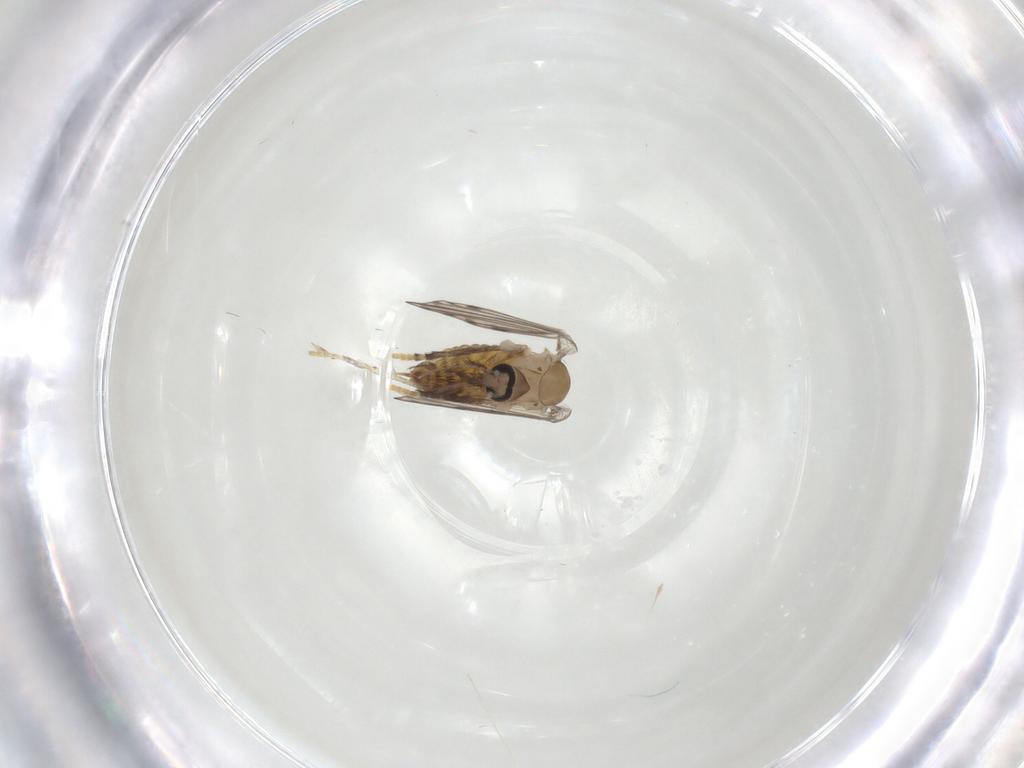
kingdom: Animalia
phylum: Arthropoda
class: Insecta
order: Diptera
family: Psychodidae
